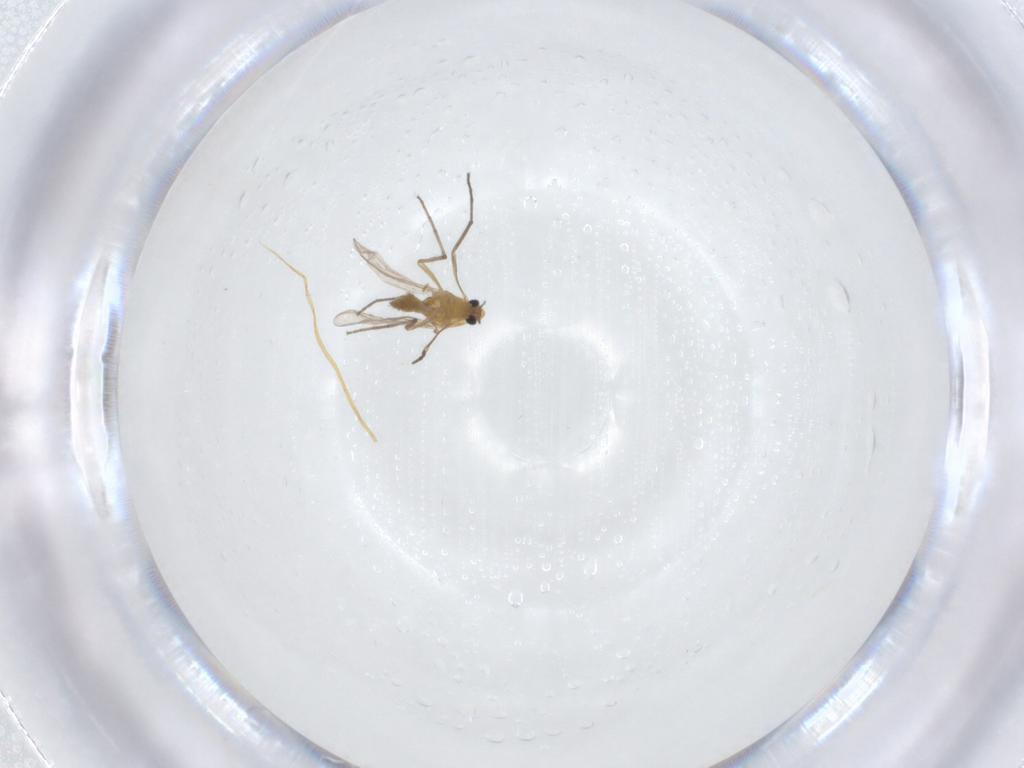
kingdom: Animalia
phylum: Arthropoda
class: Insecta
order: Diptera
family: Chironomidae
